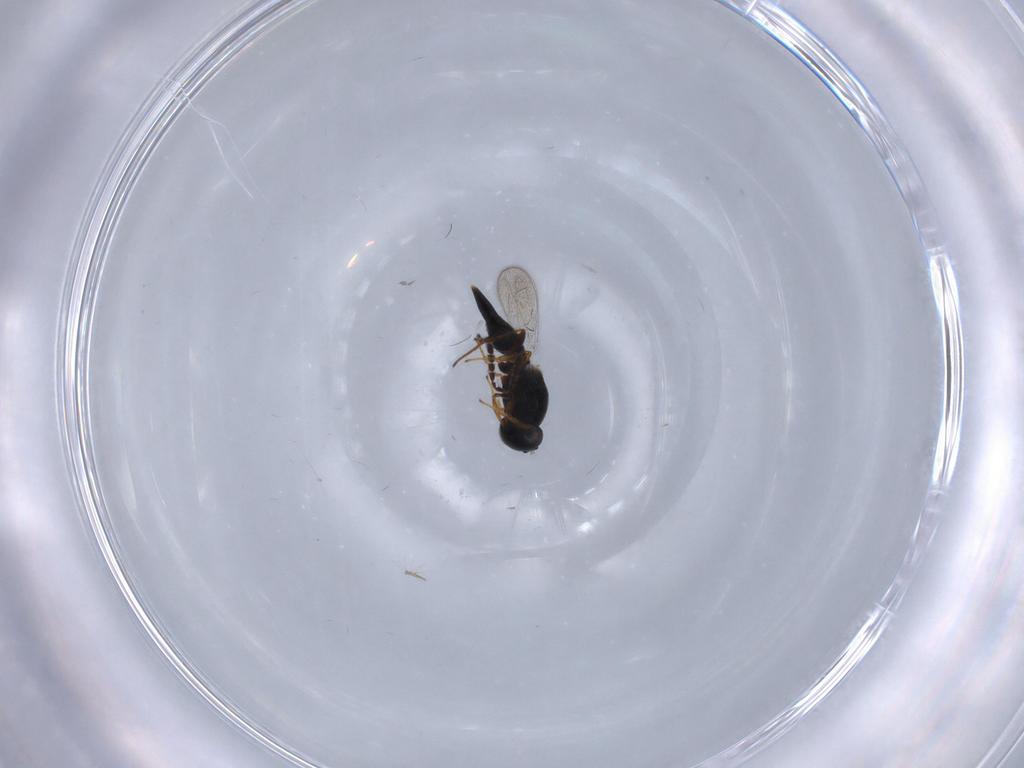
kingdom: Animalia
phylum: Arthropoda
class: Insecta
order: Hymenoptera
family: Platygastridae
